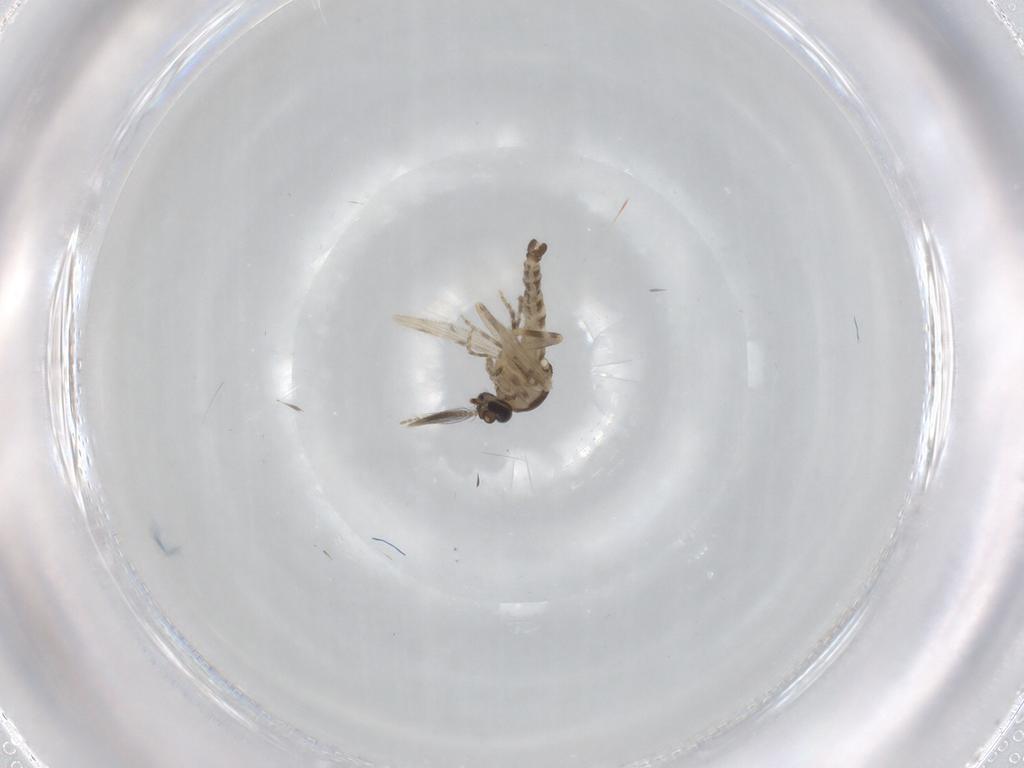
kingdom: Animalia
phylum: Arthropoda
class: Insecta
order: Diptera
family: Ceratopogonidae
